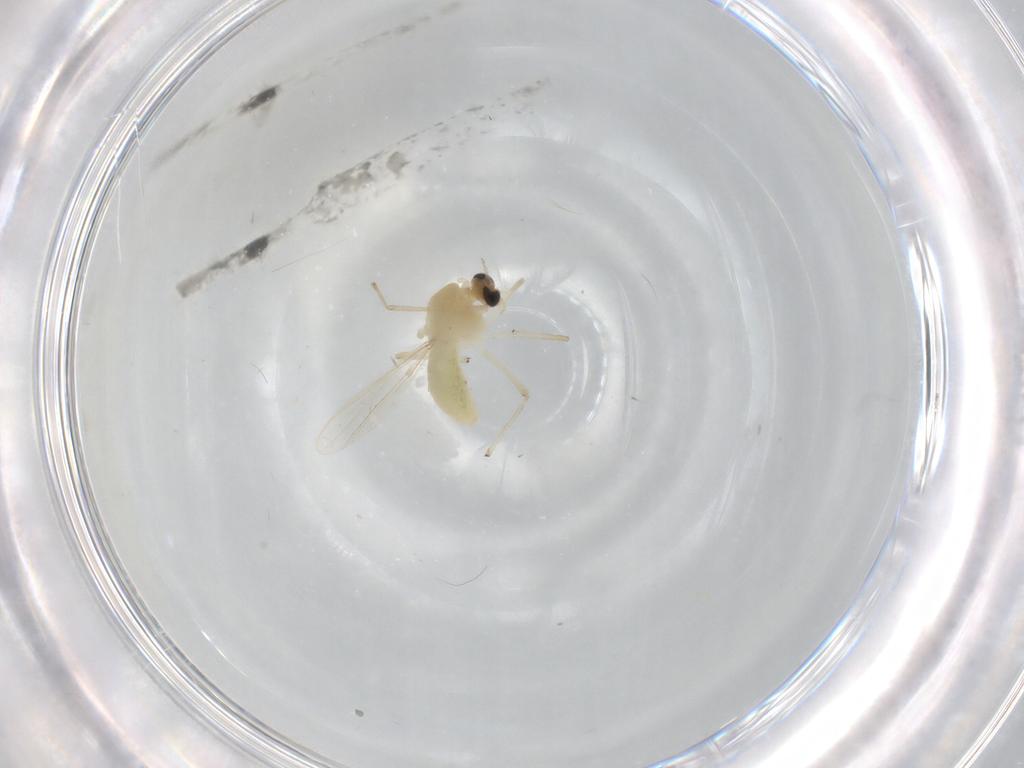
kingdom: Animalia
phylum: Arthropoda
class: Insecta
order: Diptera
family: Chironomidae
